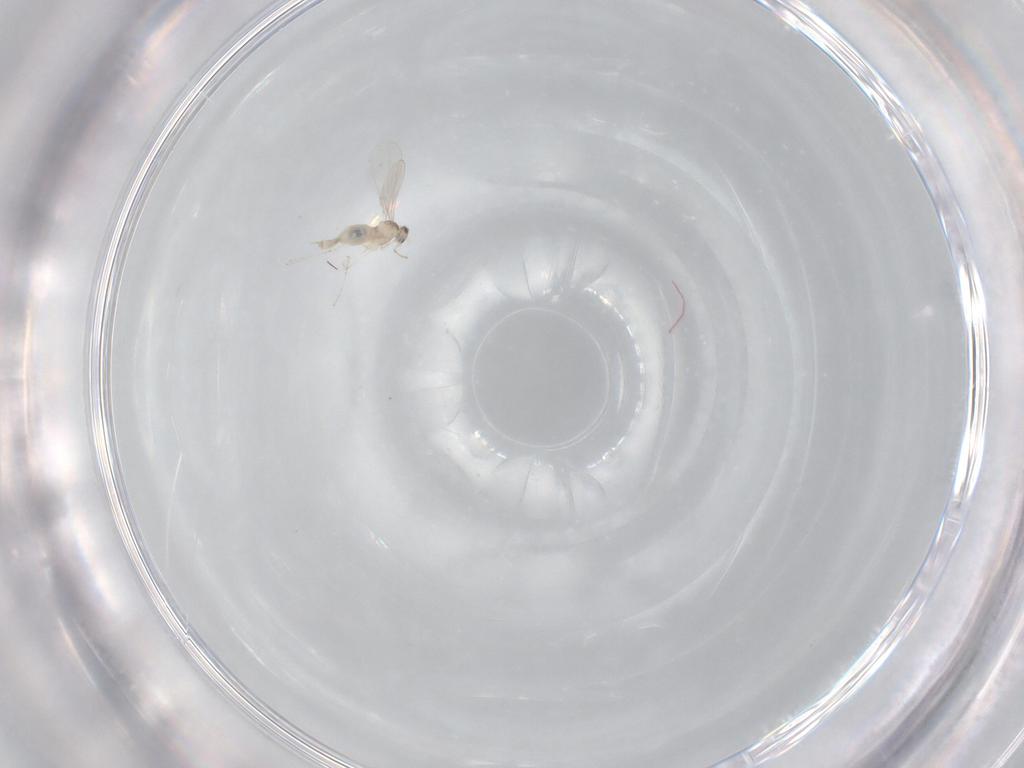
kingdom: Animalia
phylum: Arthropoda
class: Insecta
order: Diptera
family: Cecidomyiidae
